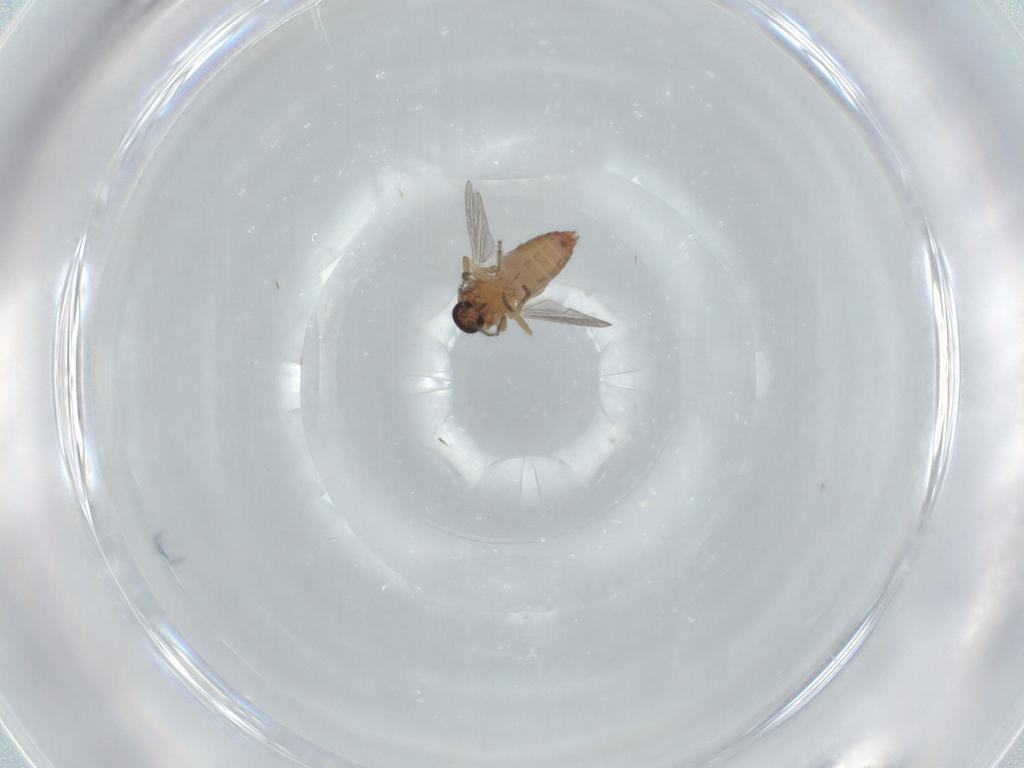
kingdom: Animalia
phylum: Arthropoda
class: Insecta
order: Diptera
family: Ceratopogonidae
